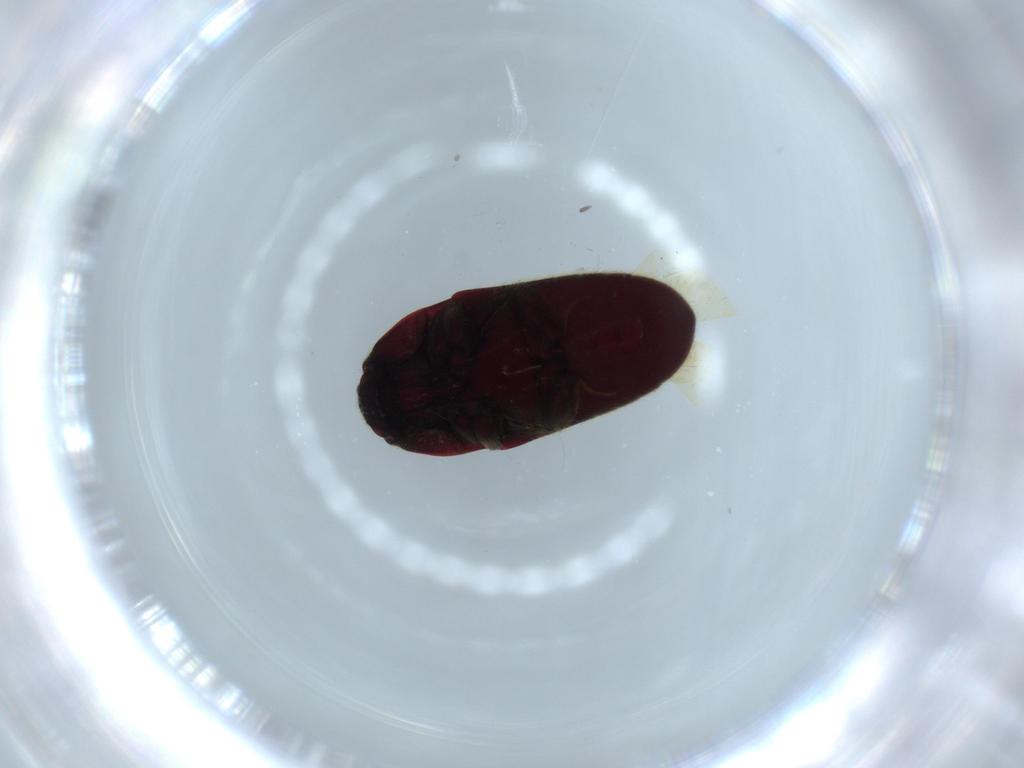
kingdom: Animalia
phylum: Arthropoda
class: Insecta
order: Coleoptera
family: Throscidae
